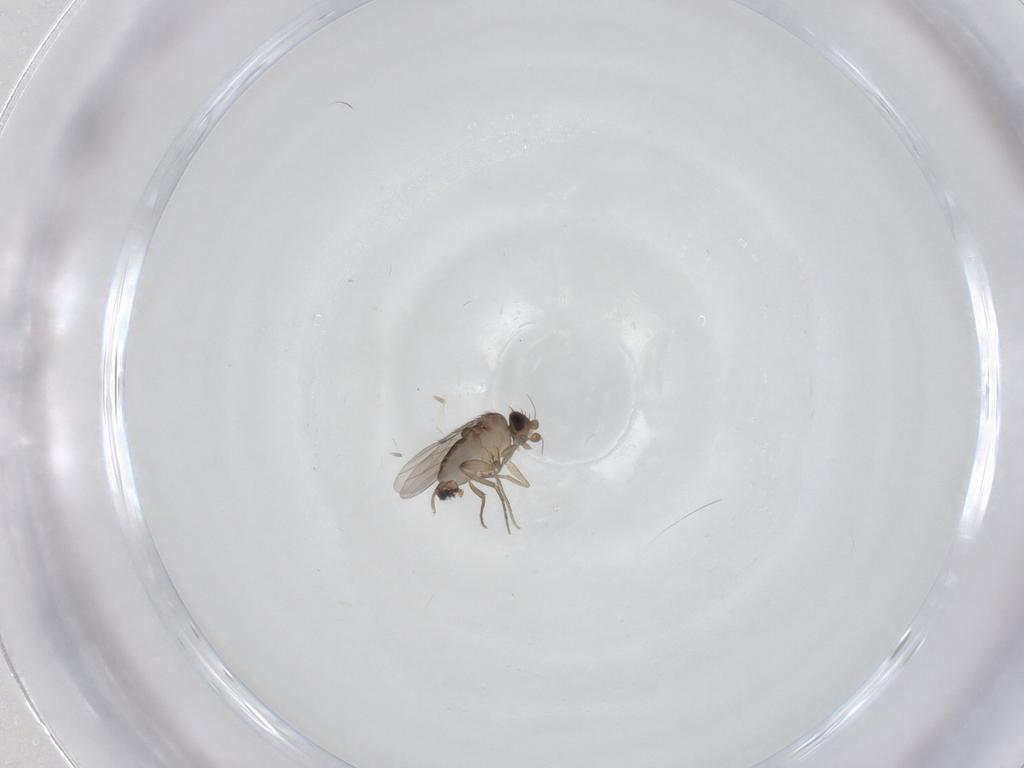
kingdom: Animalia
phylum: Arthropoda
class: Insecta
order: Diptera
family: Phoridae
